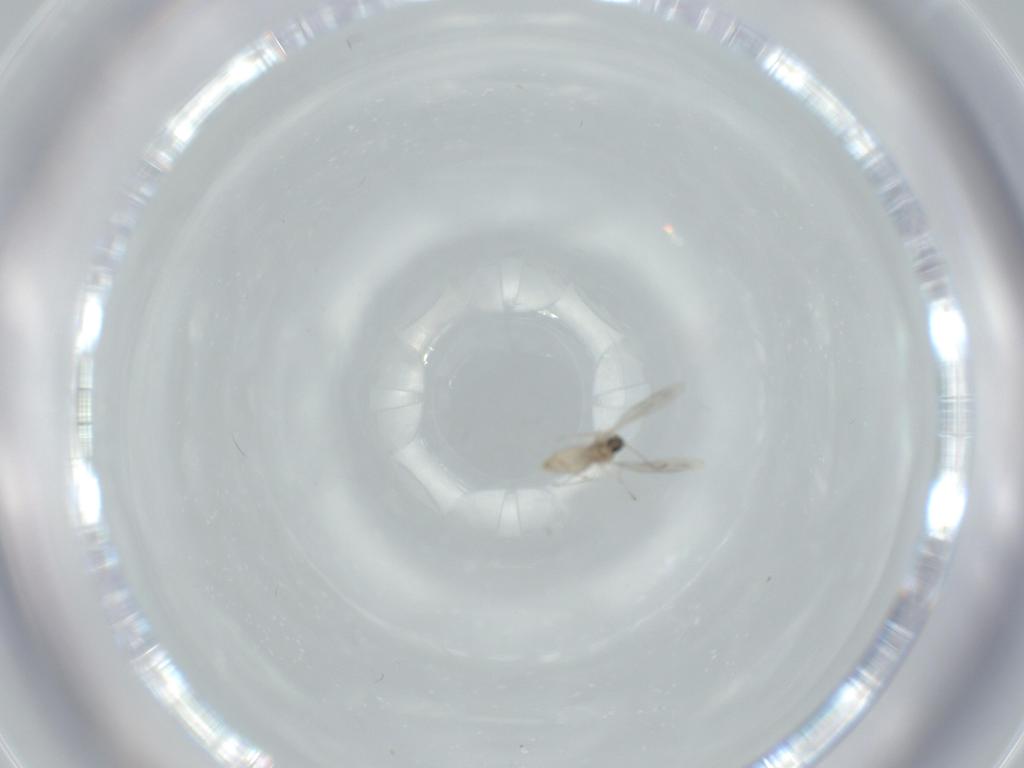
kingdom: Animalia
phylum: Arthropoda
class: Insecta
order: Diptera
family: Cecidomyiidae
